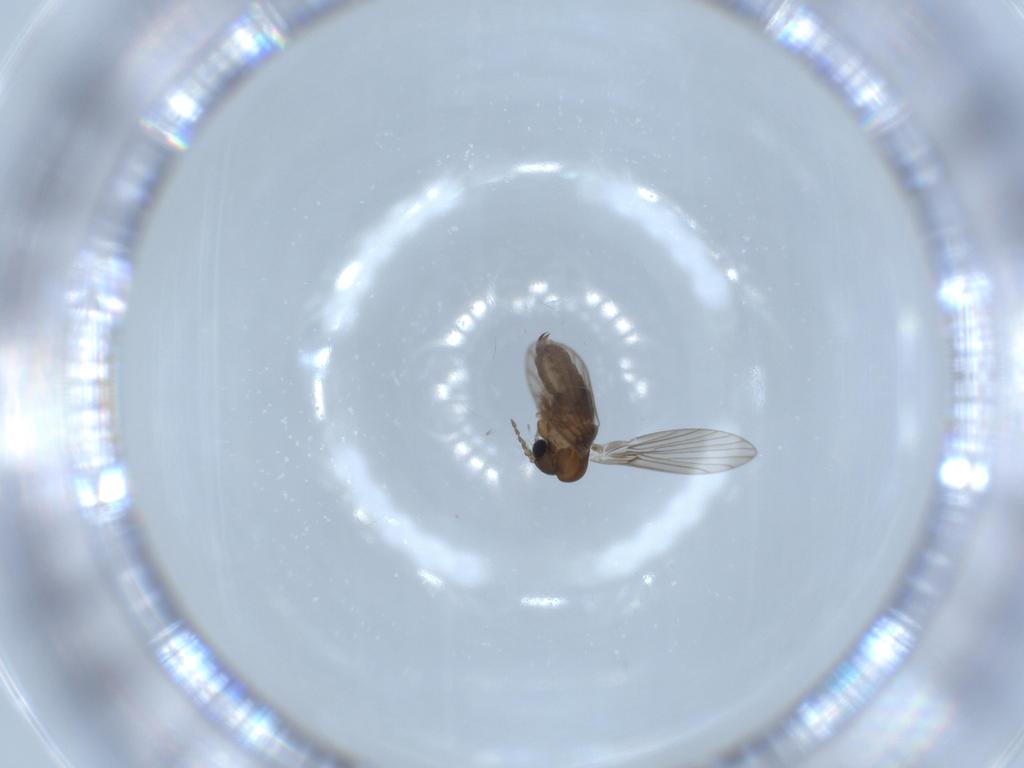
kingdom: Animalia
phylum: Arthropoda
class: Insecta
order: Diptera
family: Psychodidae
